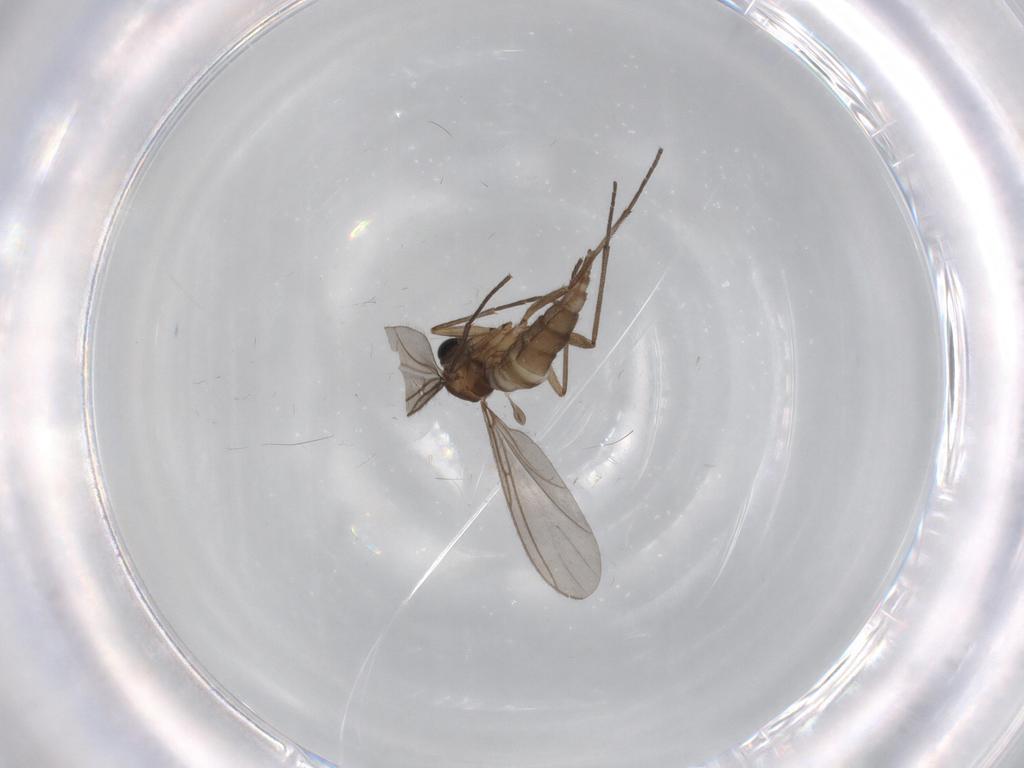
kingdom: Animalia
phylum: Arthropoda
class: Insecta
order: Diptera
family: Sciaridae
